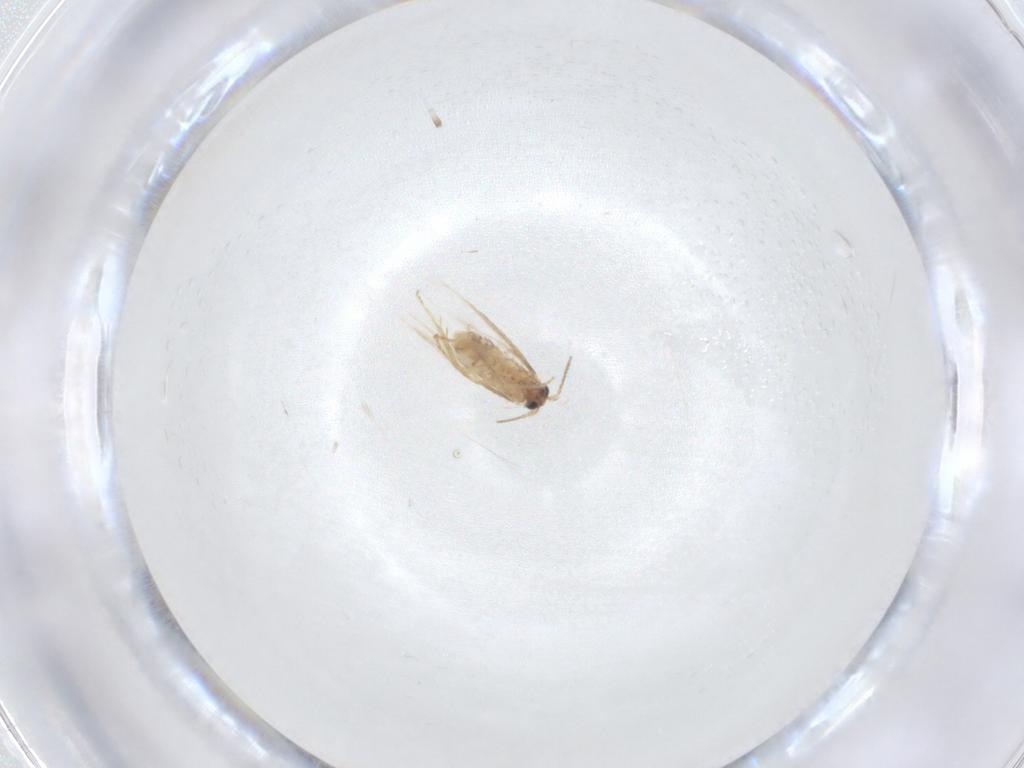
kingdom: Animalia
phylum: Arthropoda
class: Insecta
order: Lepidoptera
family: Nepticulidae
